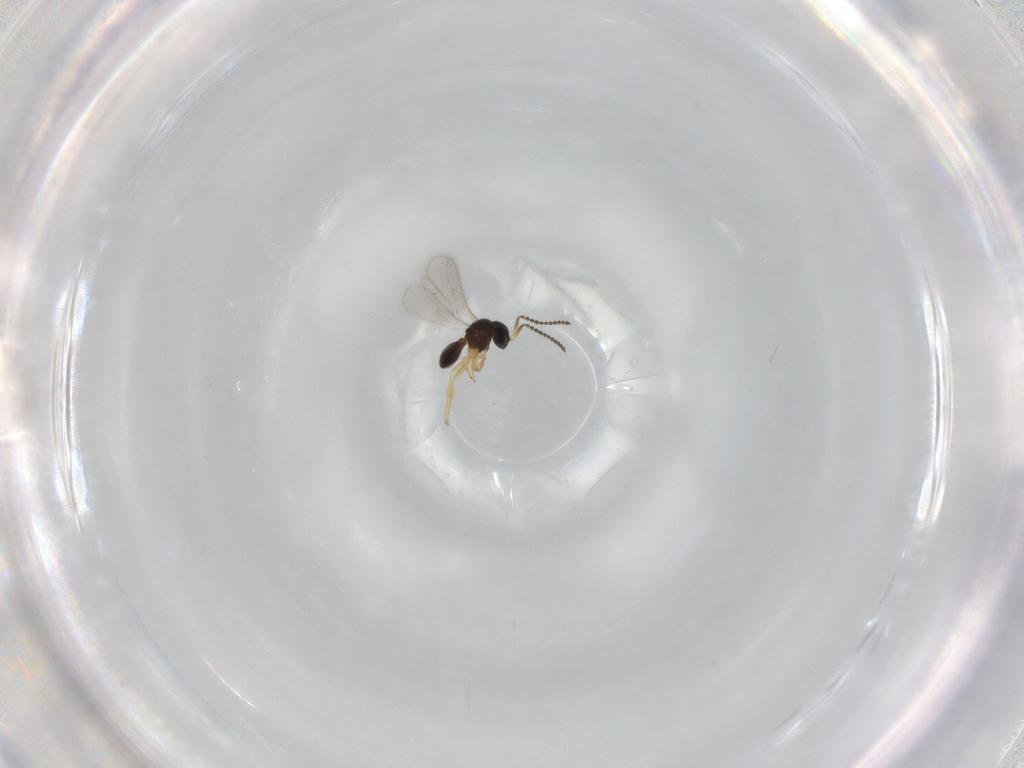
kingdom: Animalia
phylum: Arthropoda
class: Insecta
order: Hymenoptera
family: Scelionidae
